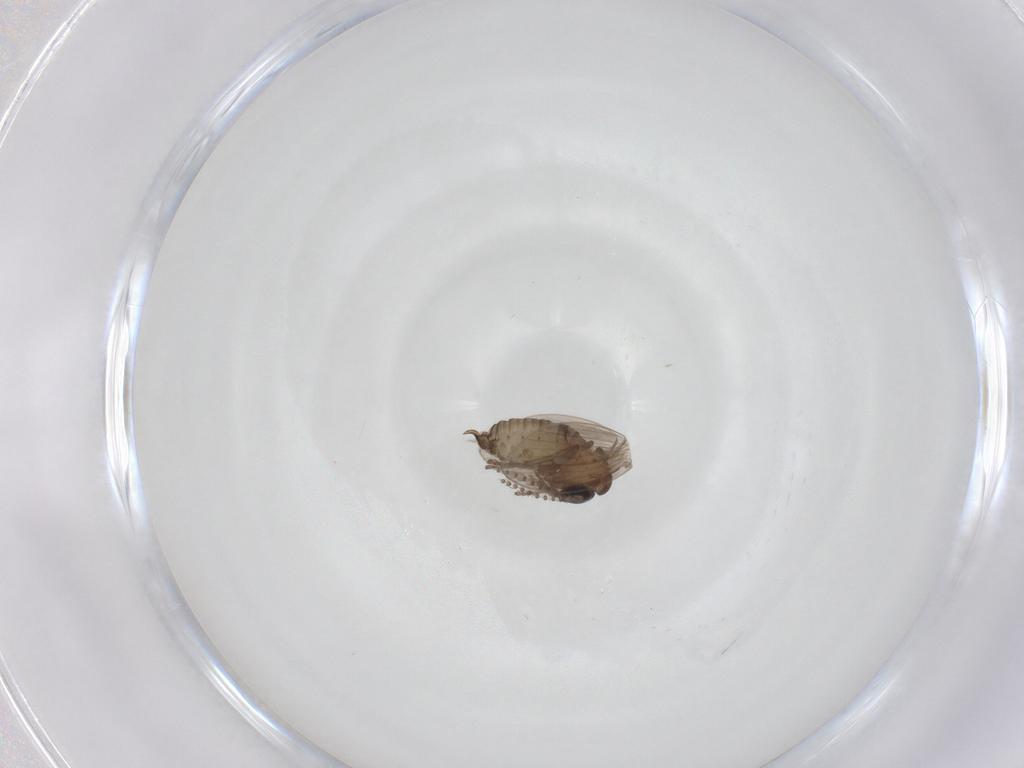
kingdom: Animalia
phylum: Arthropoda
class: Insecta
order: Diptera
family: Psychodidae
